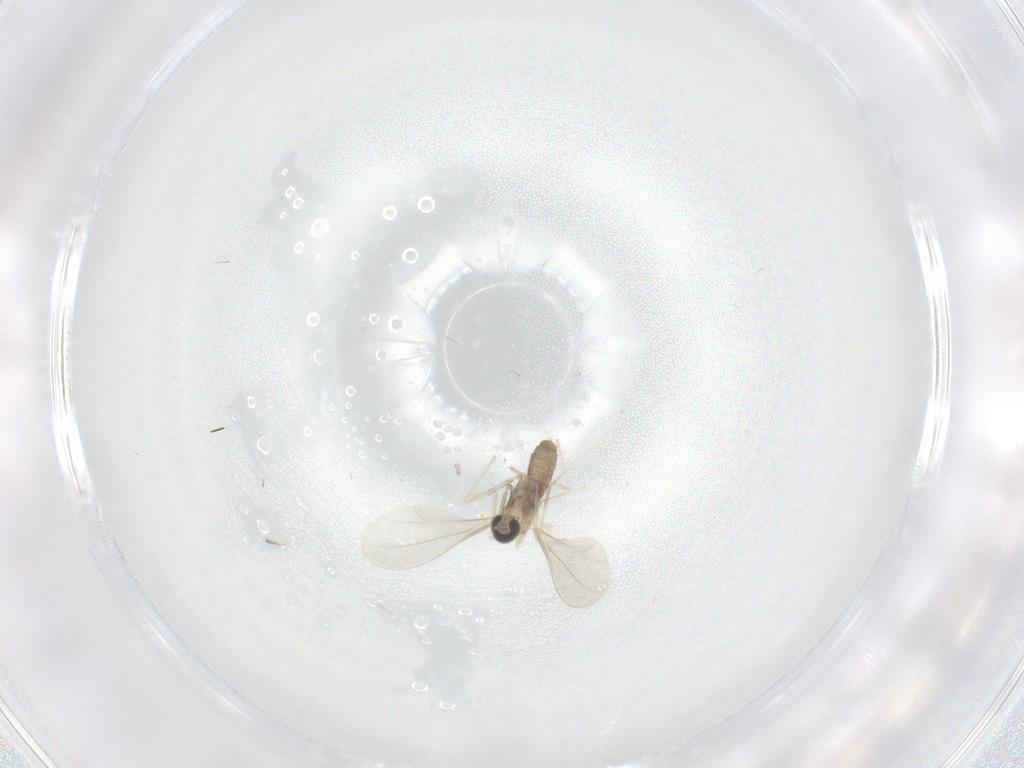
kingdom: Animalia
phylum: Arthropoda
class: Insecta
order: Diptera
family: Cecidomyiidae
